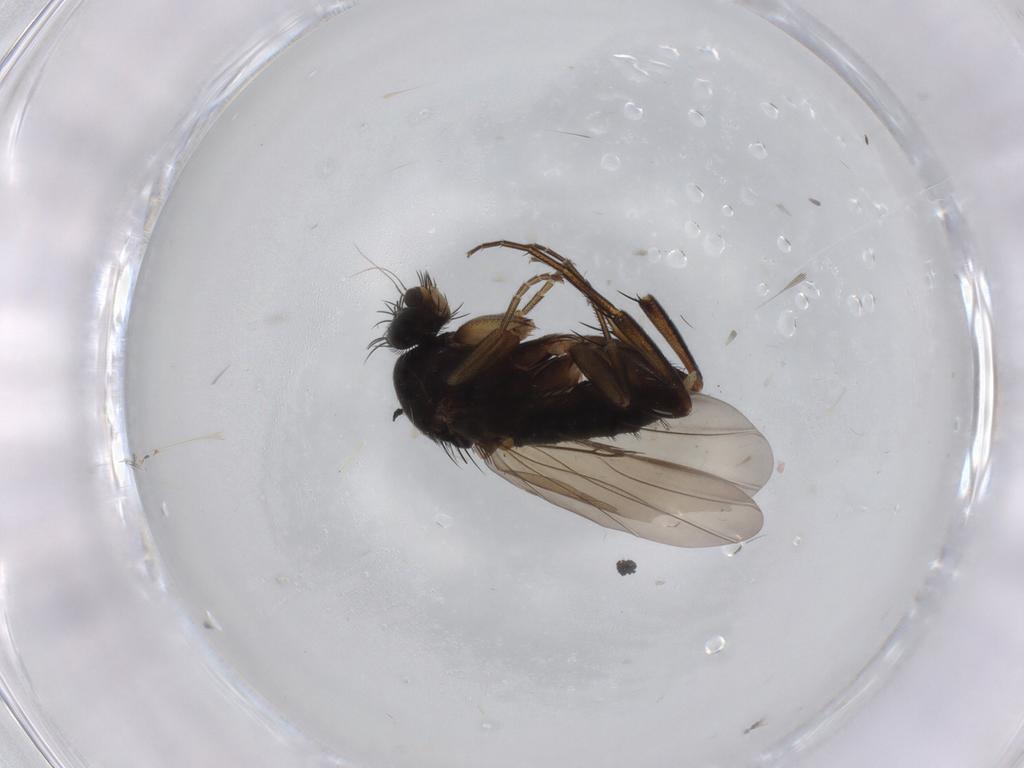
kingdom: Animalia
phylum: Arthropoda
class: Insecta
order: Diptera
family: Phoridae
